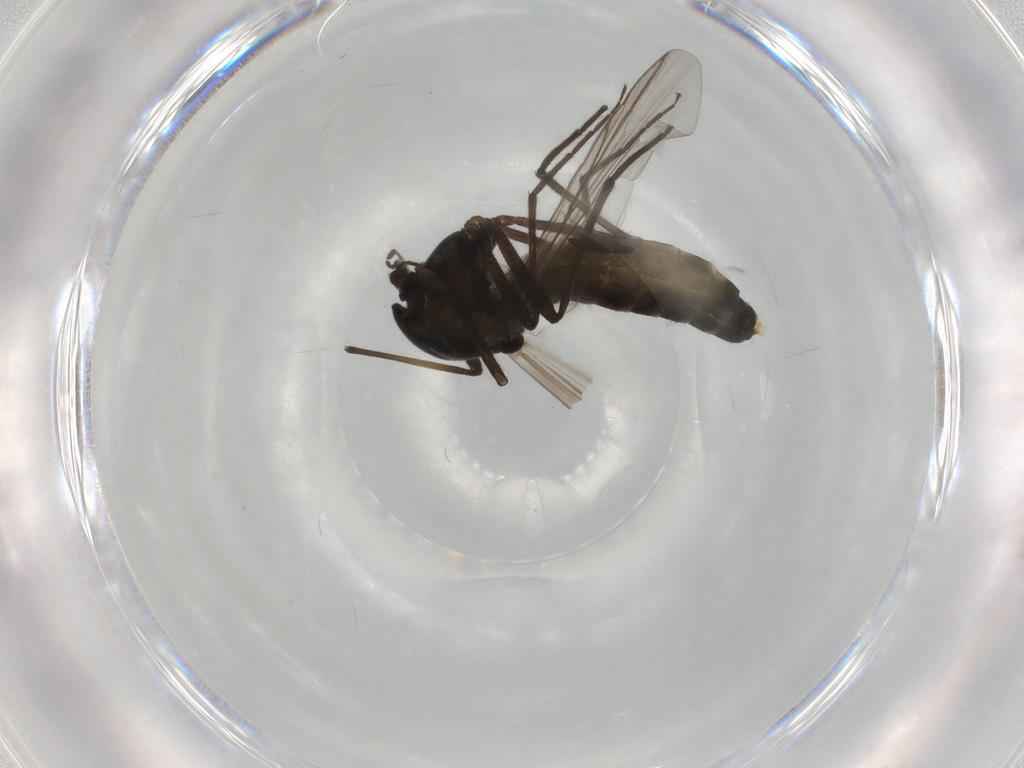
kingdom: Animalia
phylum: Arthropoda
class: Insecta
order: Diptera
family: Chironomidae
